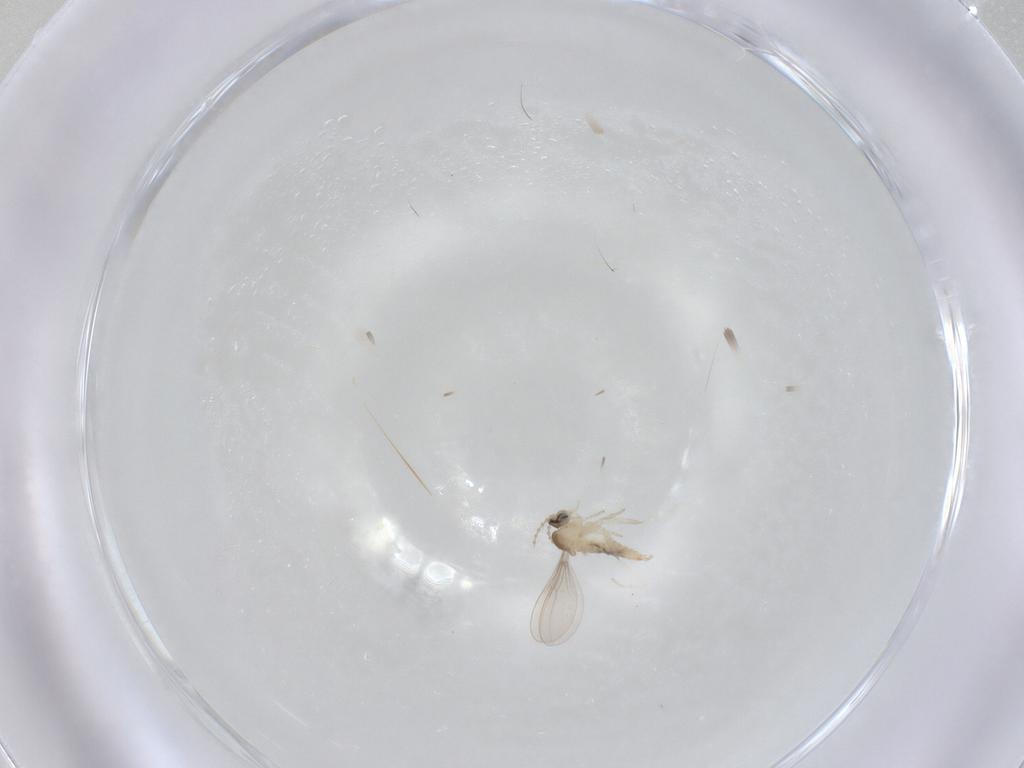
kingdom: Animalia
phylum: Arthropoda
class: Insecta
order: Diptera
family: Cecidomyiidae
